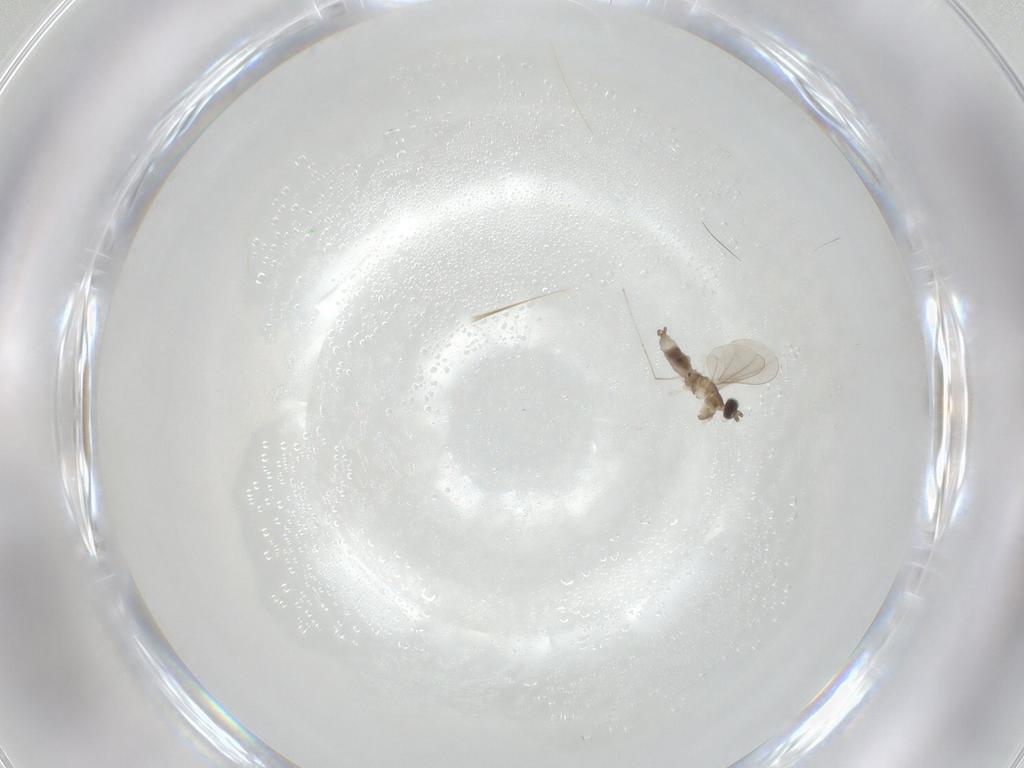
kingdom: Animalia
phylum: Arthropoda
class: Insecta
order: Diptera
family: Cecidomyiidae
